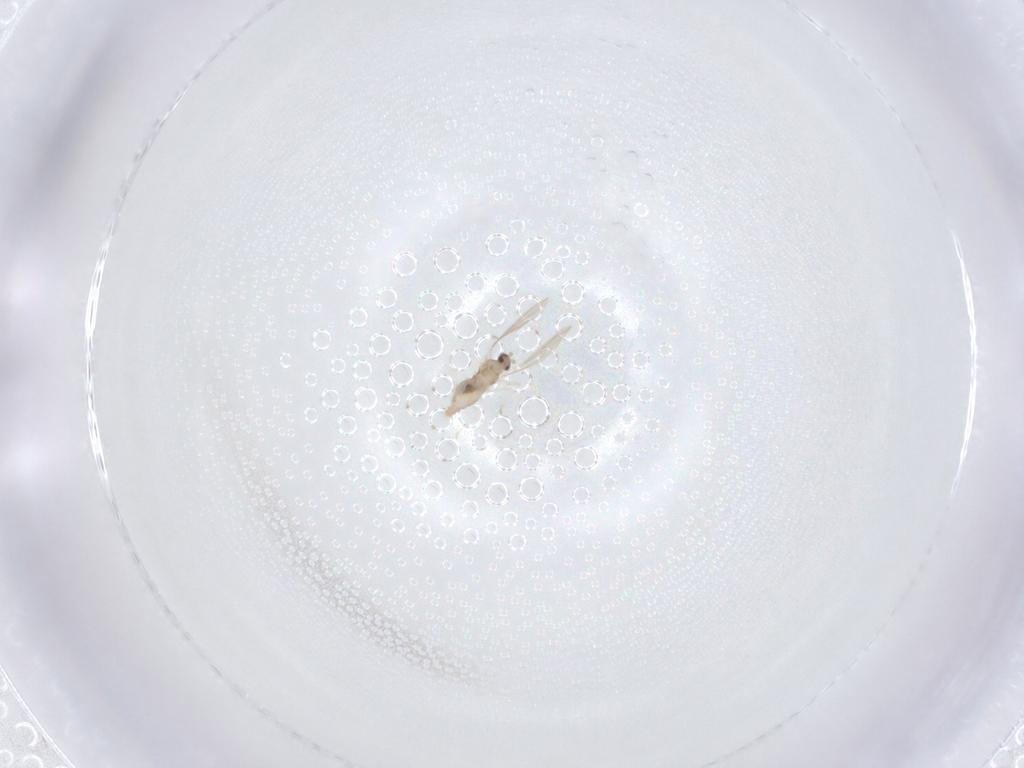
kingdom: Animalia
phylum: Arthropoda
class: Insecta
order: Diptera
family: Cecidomyiidae
